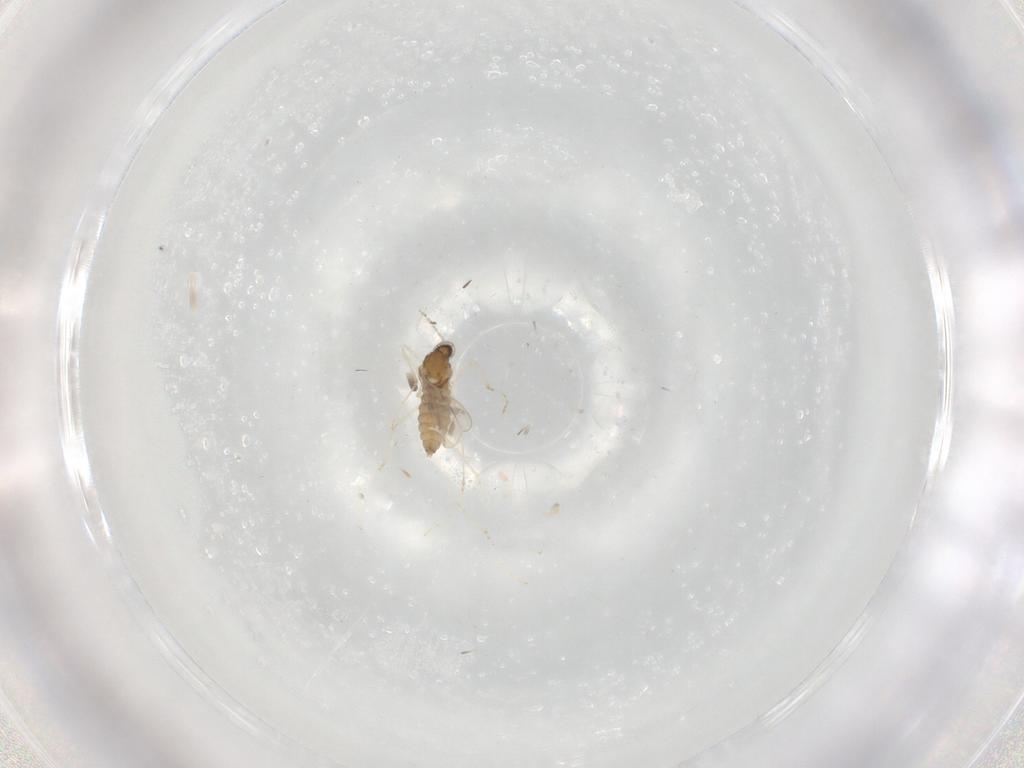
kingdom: Animalia
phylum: Arthropoda
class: Insecta
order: Diptera
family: Cecidomyiidae
